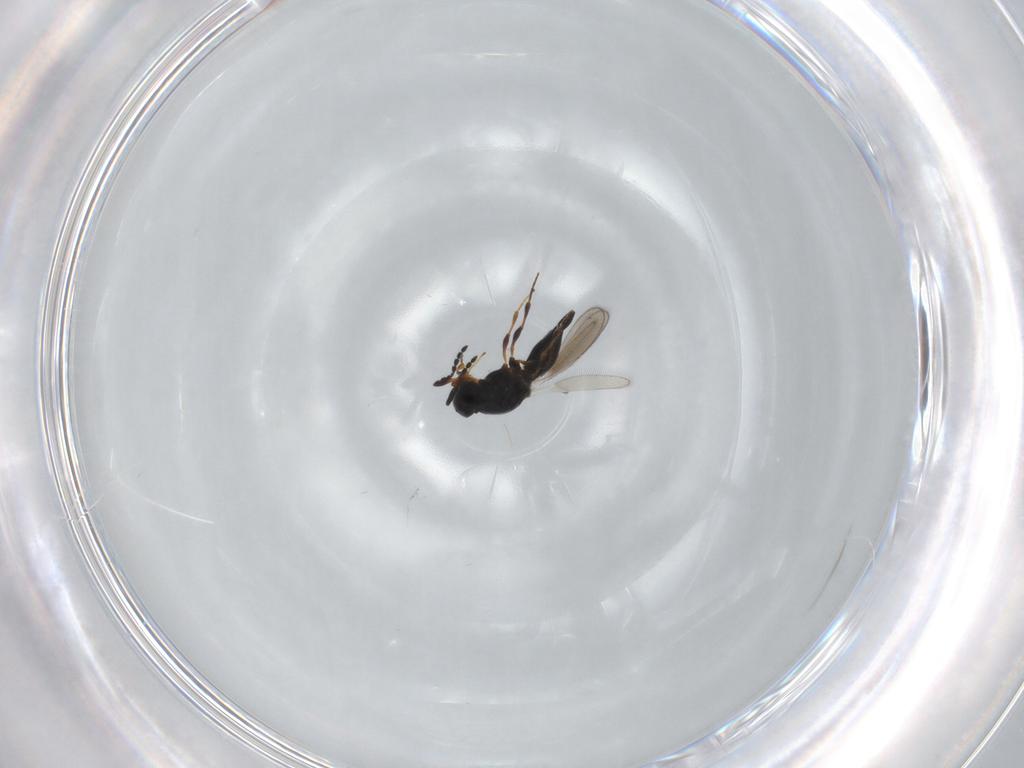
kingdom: Animalia
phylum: Arthropoda
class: Insecta
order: Hymenoptera
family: Platygastridae
